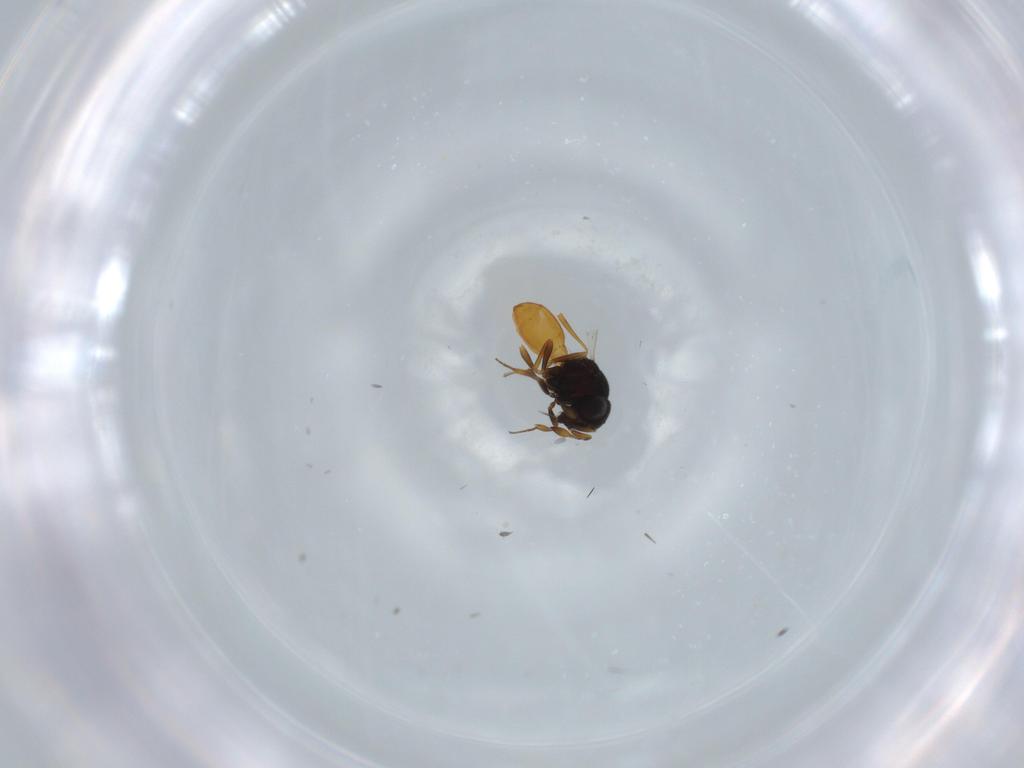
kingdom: Animalia
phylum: Arthropoda
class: Insecta
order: Hymenoptera
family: Scelionidae
